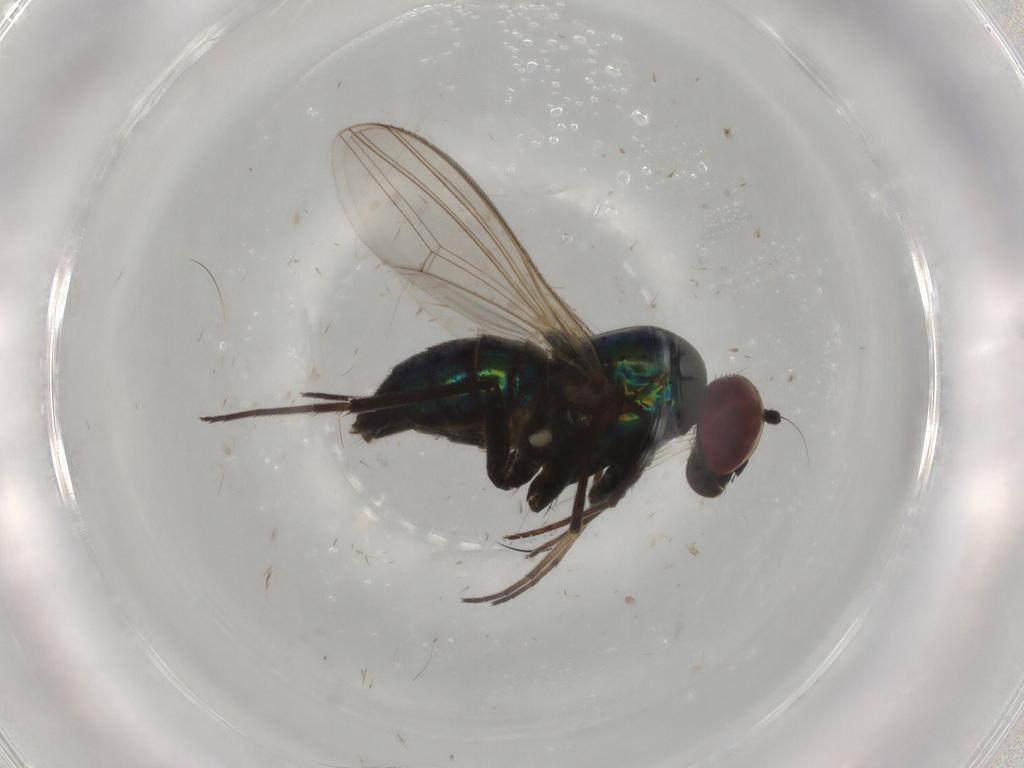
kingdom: Animalia
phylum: Arthropoda
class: Insecta
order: Diptera
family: Dolichopodidae
